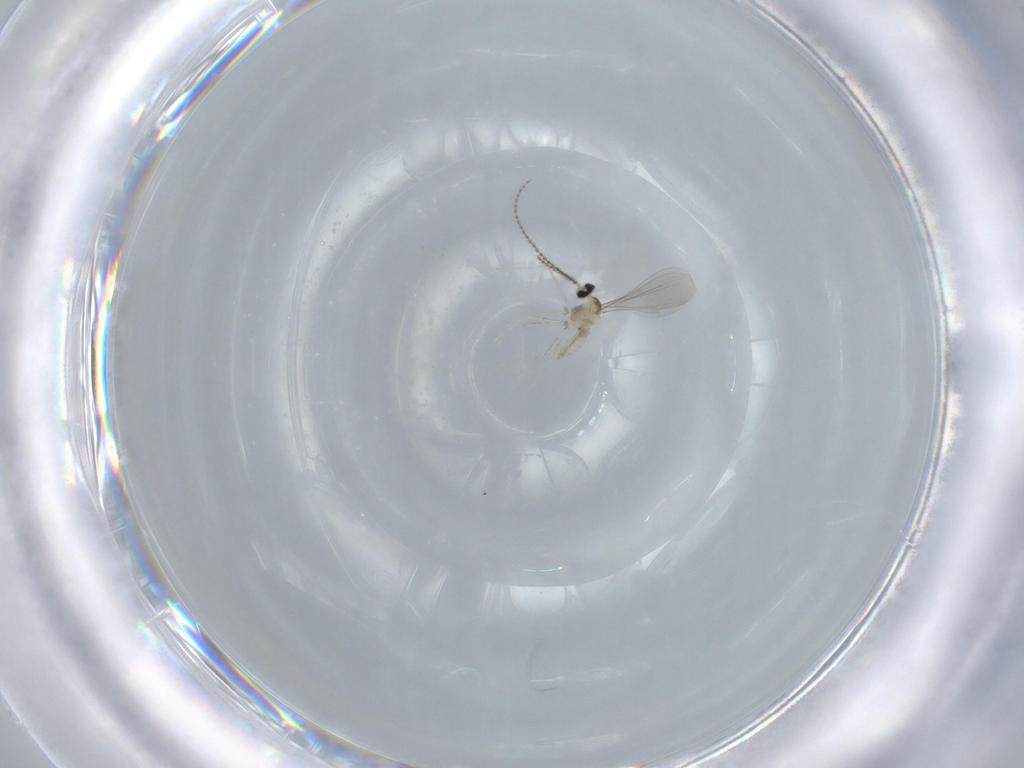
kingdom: Animalia
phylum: Arthropoda
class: Insecta
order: Diptera
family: Cecidomyiidae
